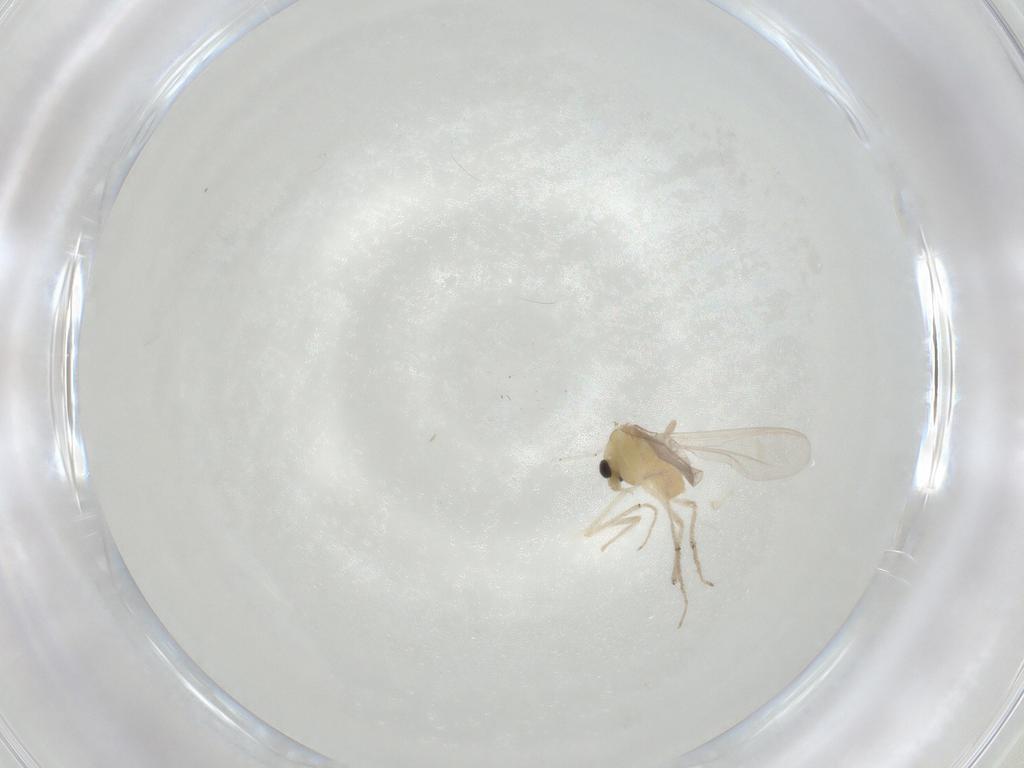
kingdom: Animalia
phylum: Arthropoda
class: Insecta
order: Diptera
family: Chironomidae
